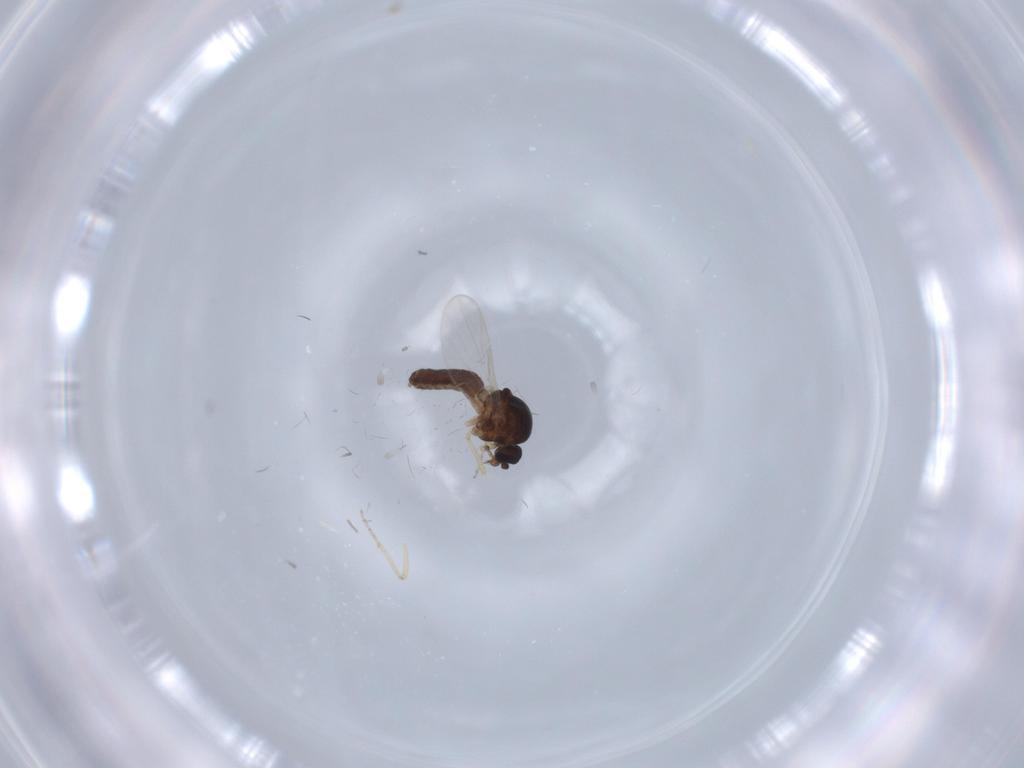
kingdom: Animalia
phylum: Arthropoda
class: Insecta
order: Diptera
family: Ceratopogonidae
